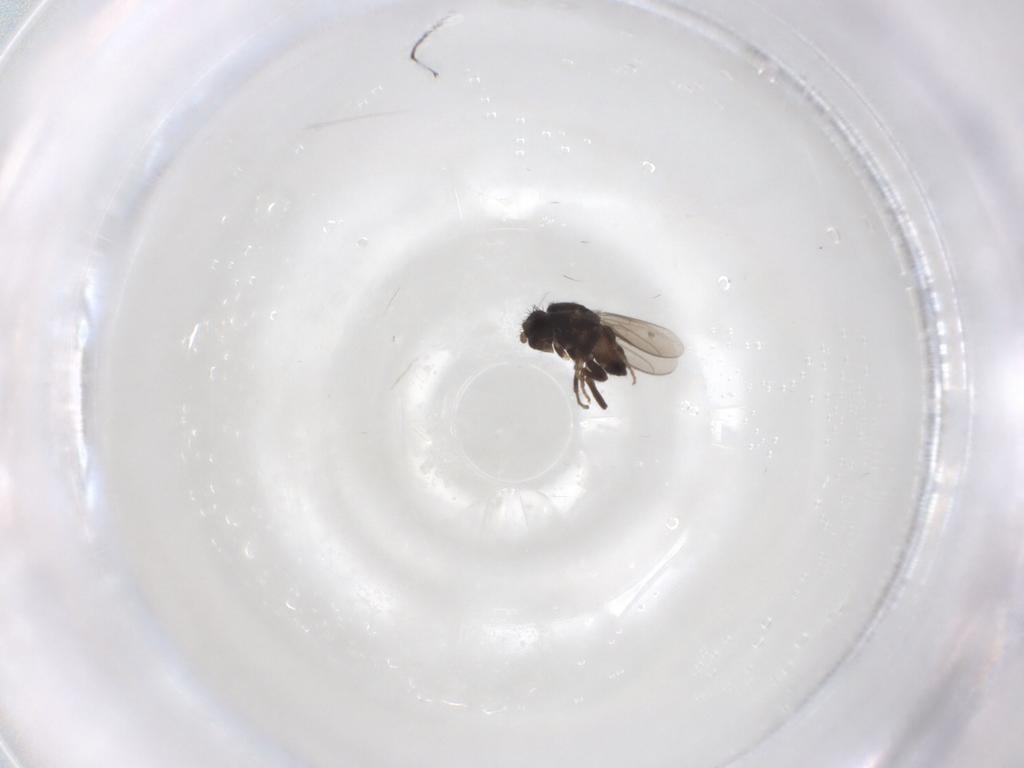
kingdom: Animalia
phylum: Arthropoda
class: Insecta
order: Diptera
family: Sphaeroceridae
